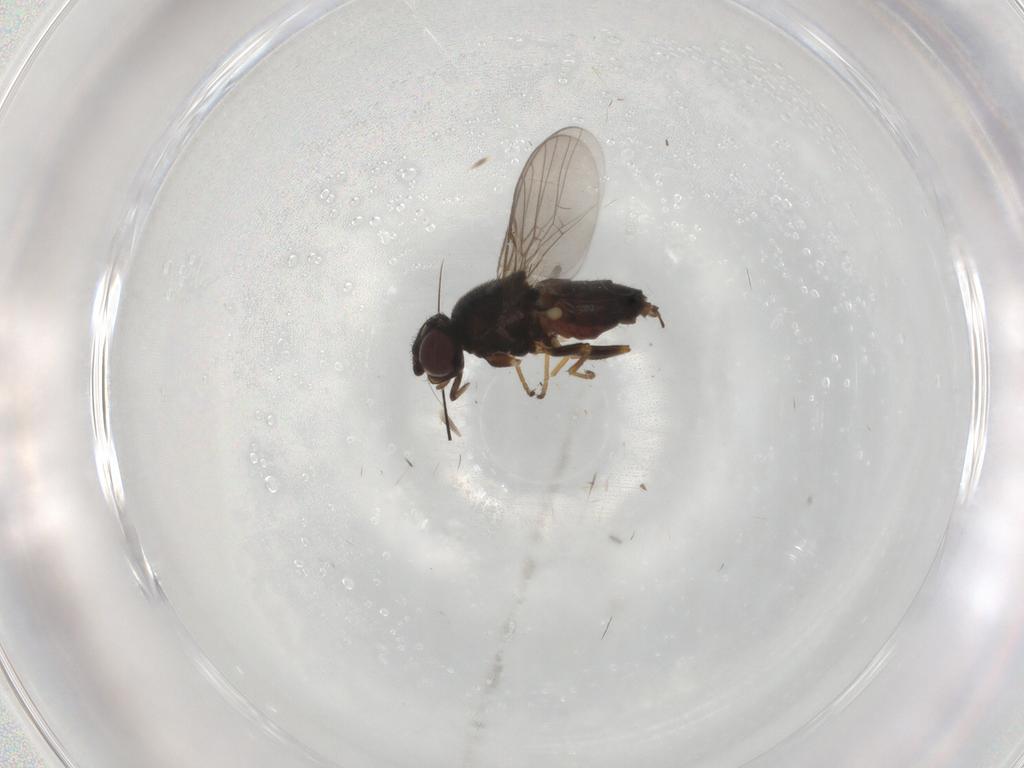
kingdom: Animalia
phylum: Arthropoda
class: Insecta
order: Diptera
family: Chloropidae
